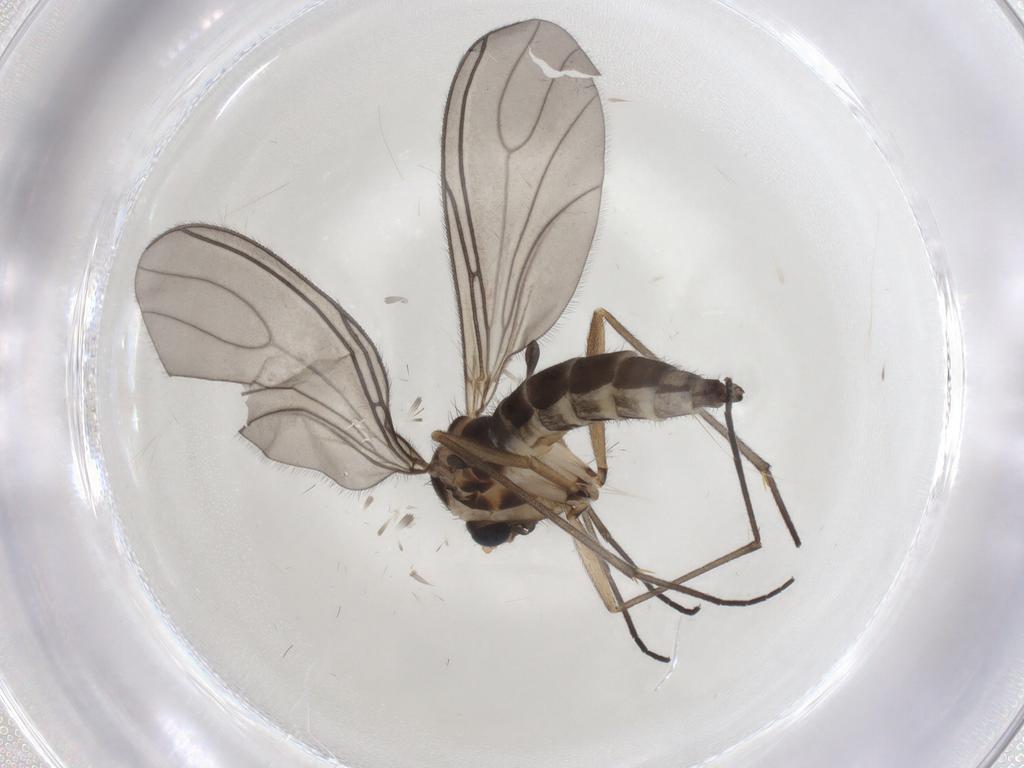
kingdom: Animalia
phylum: Arthropoda
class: Insecta
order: Diptera
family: Sciaridae
